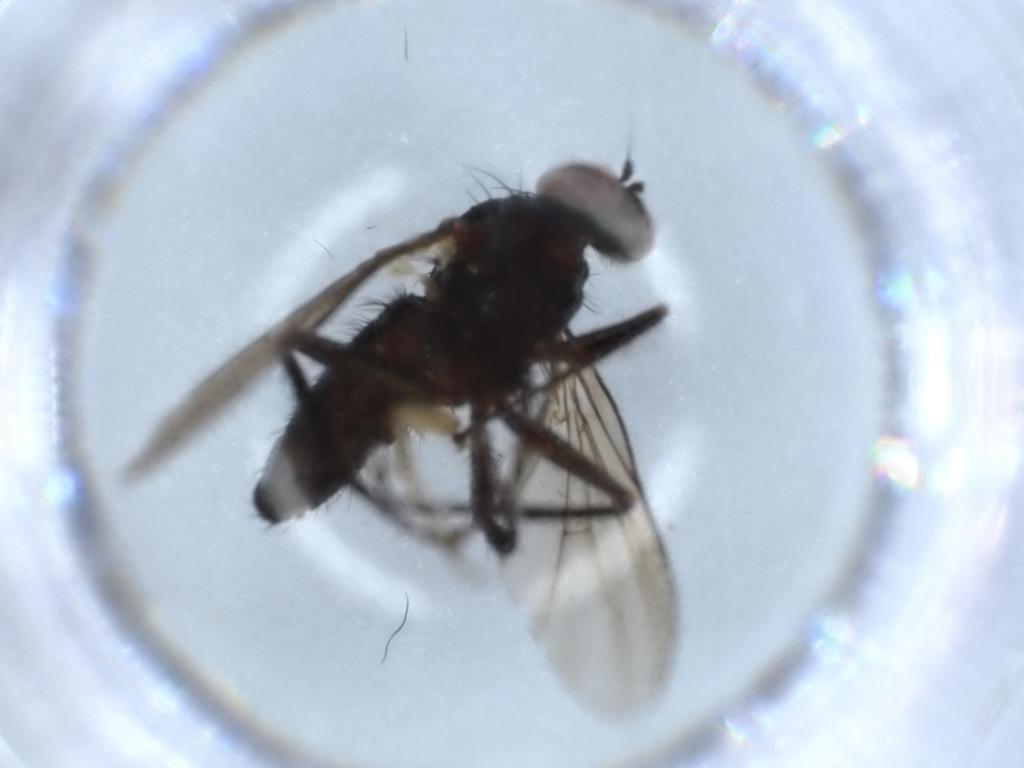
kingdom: Animalia
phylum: Arthropoda
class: Insecta
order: Diptera
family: Dolichopodidae
